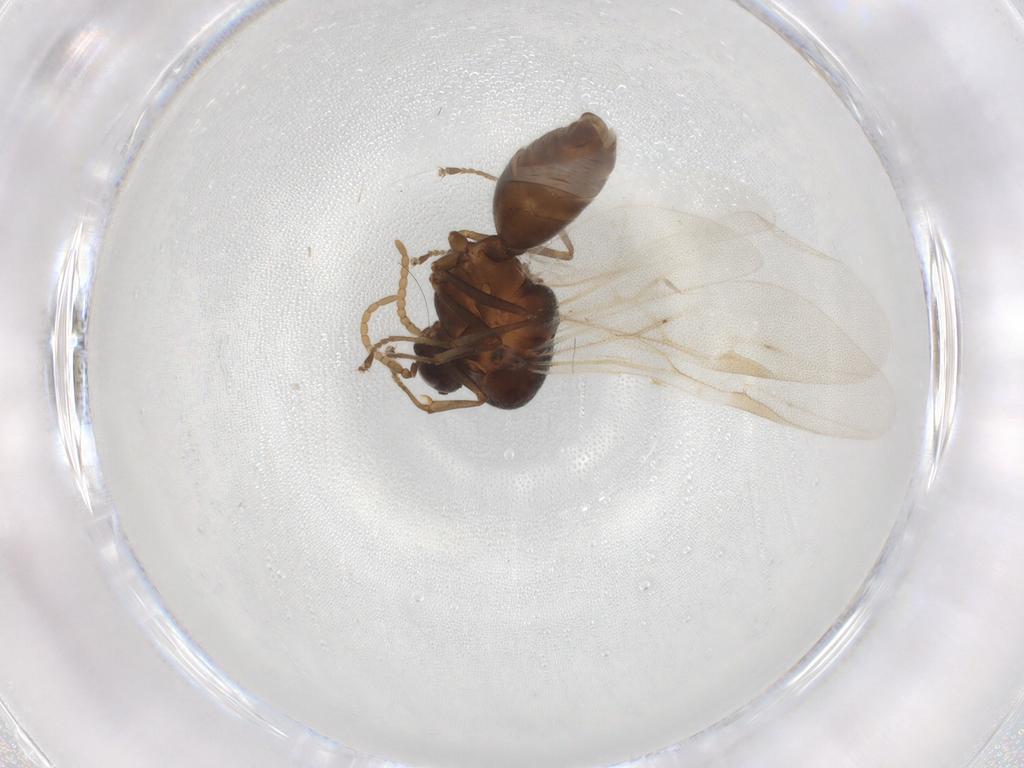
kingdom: Animalia
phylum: Arthropoda
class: Insecta
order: Hymenoptera
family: Formicidae
